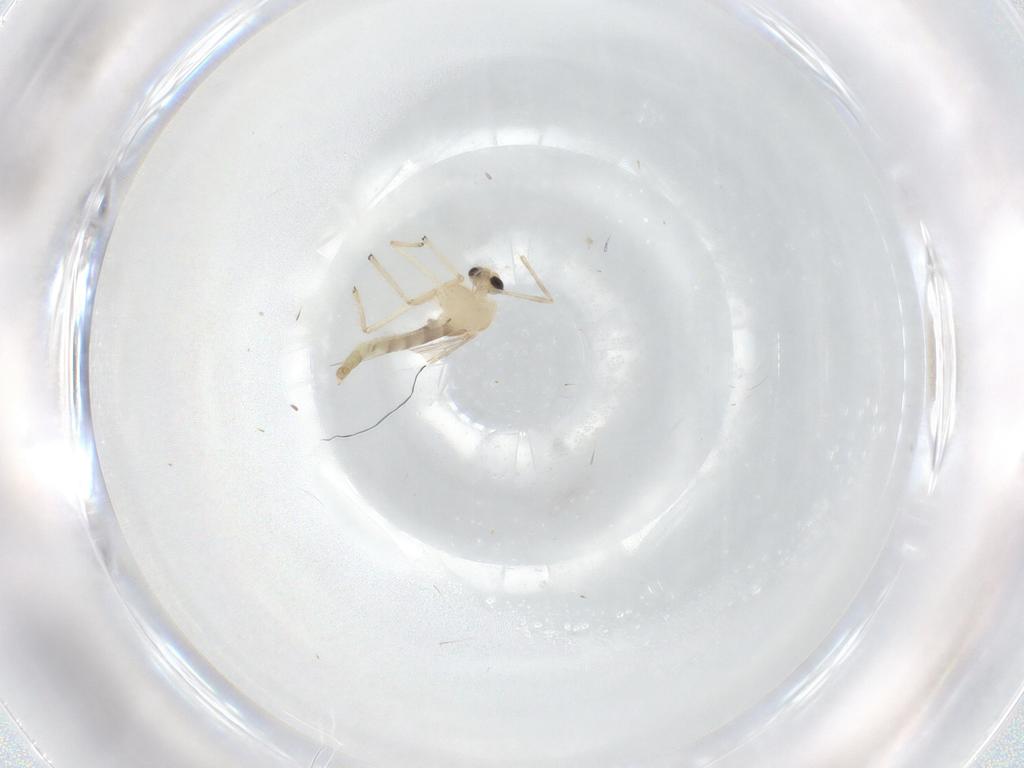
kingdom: Animalia
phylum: Arthropoda
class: Insecta
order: Diptera
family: Chironomidae
